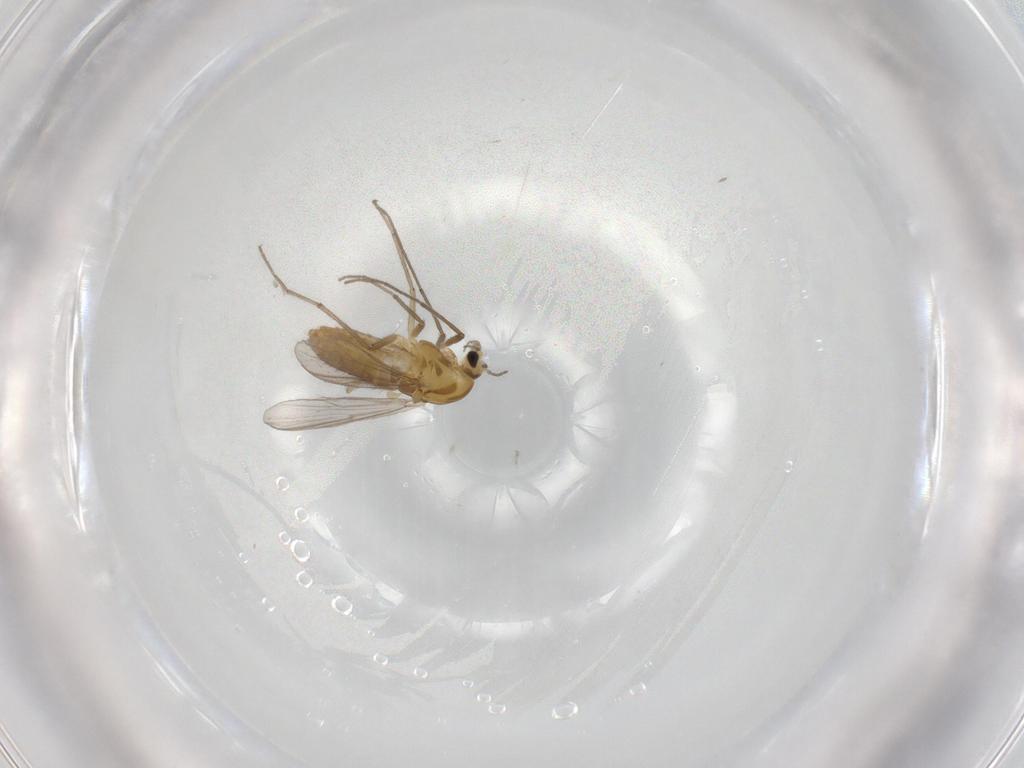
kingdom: Animalia
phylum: Arthropoda
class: Insecta
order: Diptera
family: Chironomidae
